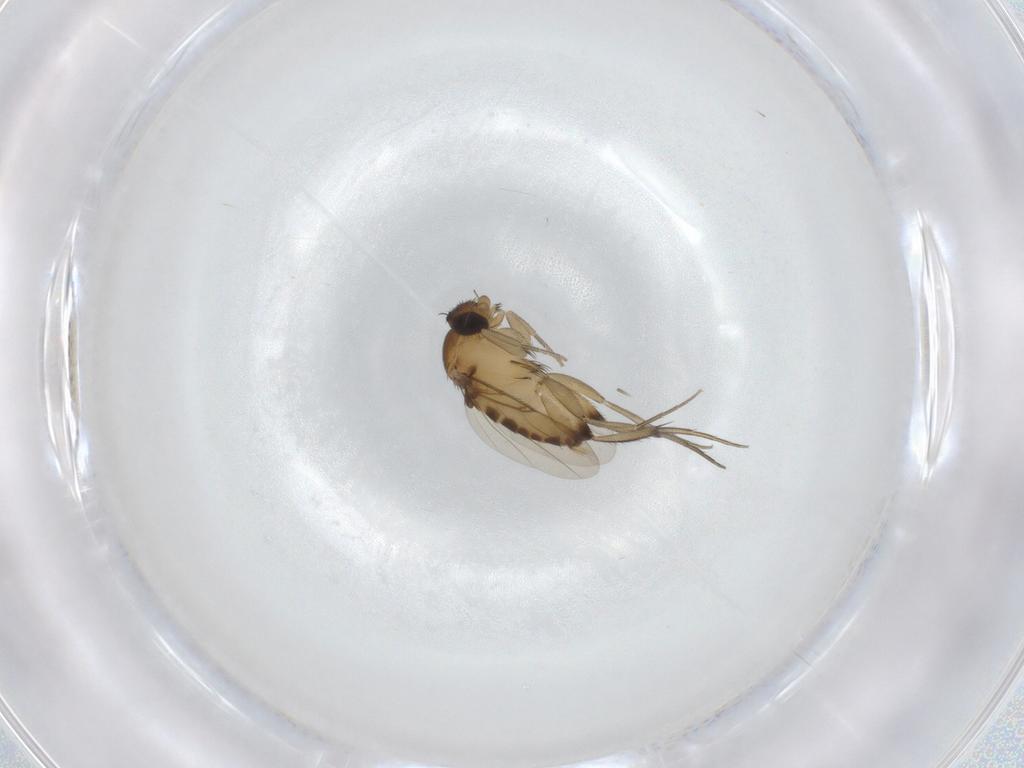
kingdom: Animalia
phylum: Arthropoda
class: Insecta
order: Diptera
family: Phoridae
